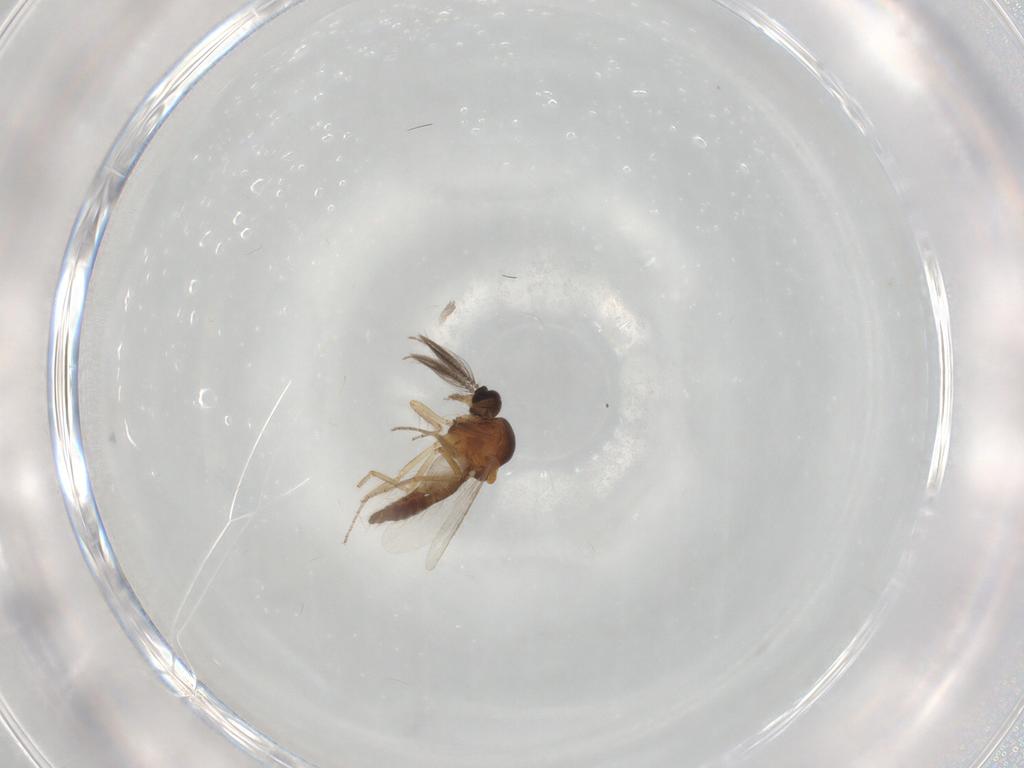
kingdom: Animalia
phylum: Arthropoda
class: Insecta
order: Diptera
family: Ceratopogonidae
